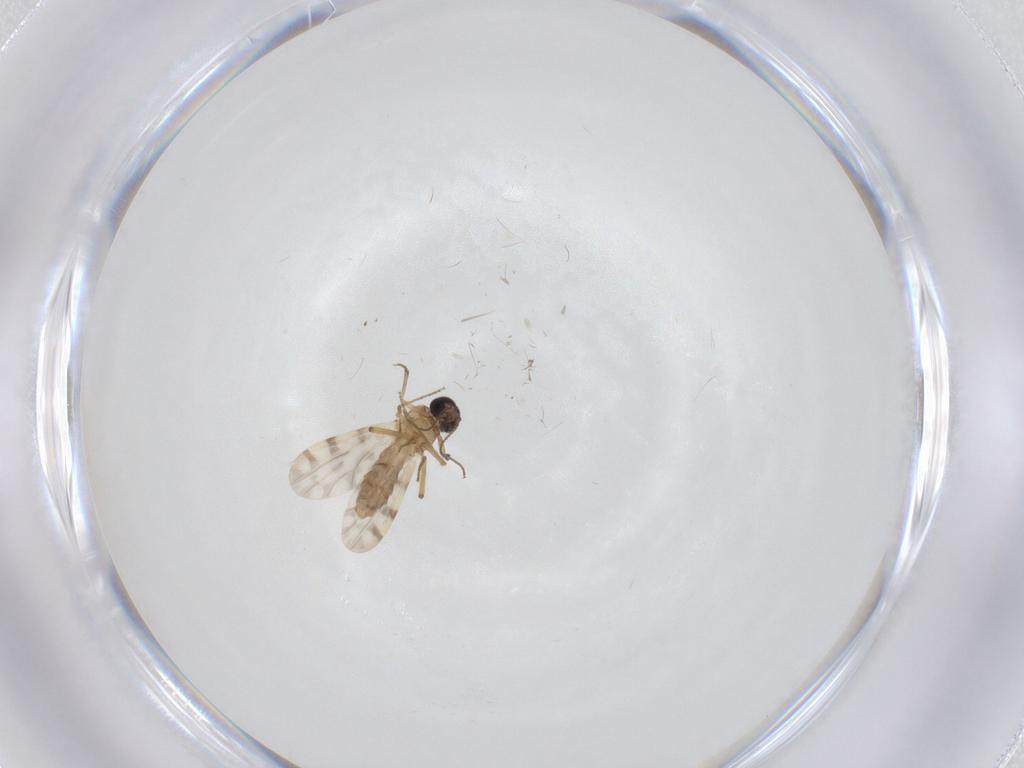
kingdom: Animalia
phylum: Arthropoda
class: Insecta
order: Diptera
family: Ceratopogonidae
